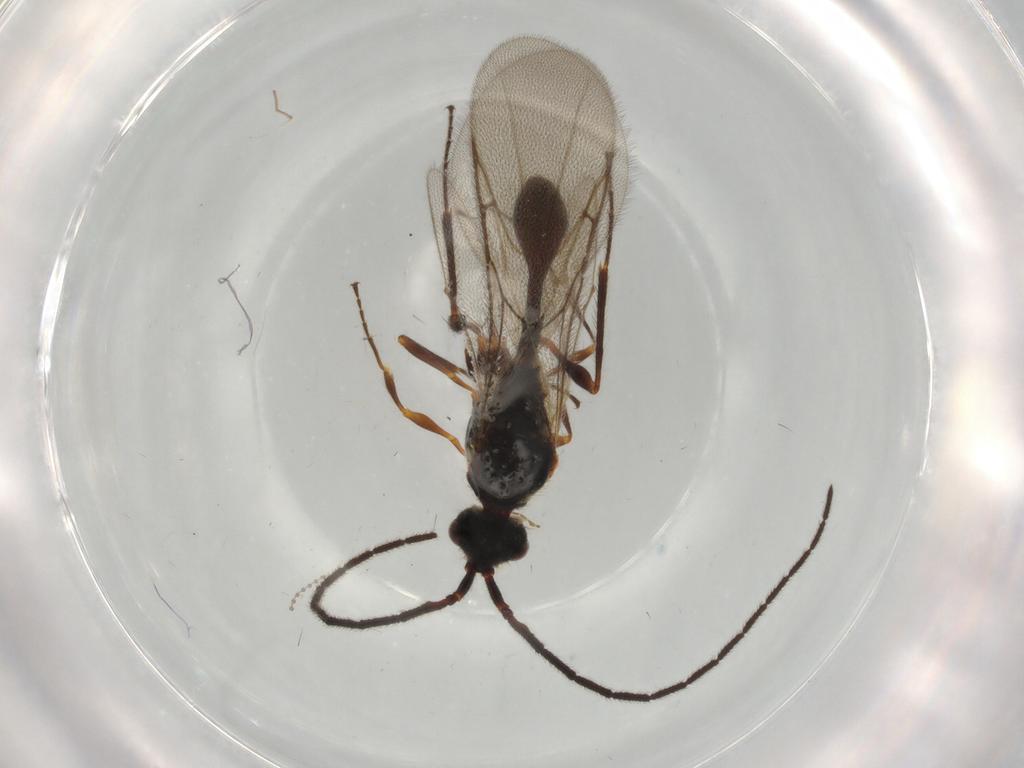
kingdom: Animalia
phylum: Arthropoda
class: Insecta
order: Hymenoptera
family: Diapriidae
